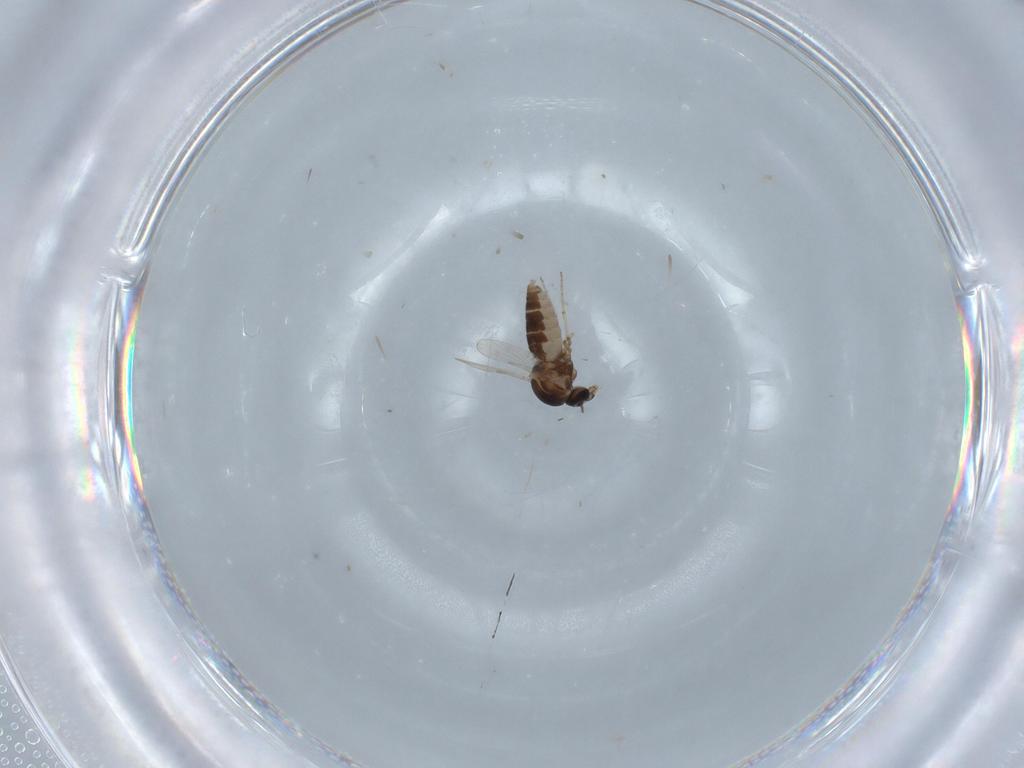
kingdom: Animalia
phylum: Arthropoda
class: Insecta
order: Diptera
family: Ceratopogonidae
